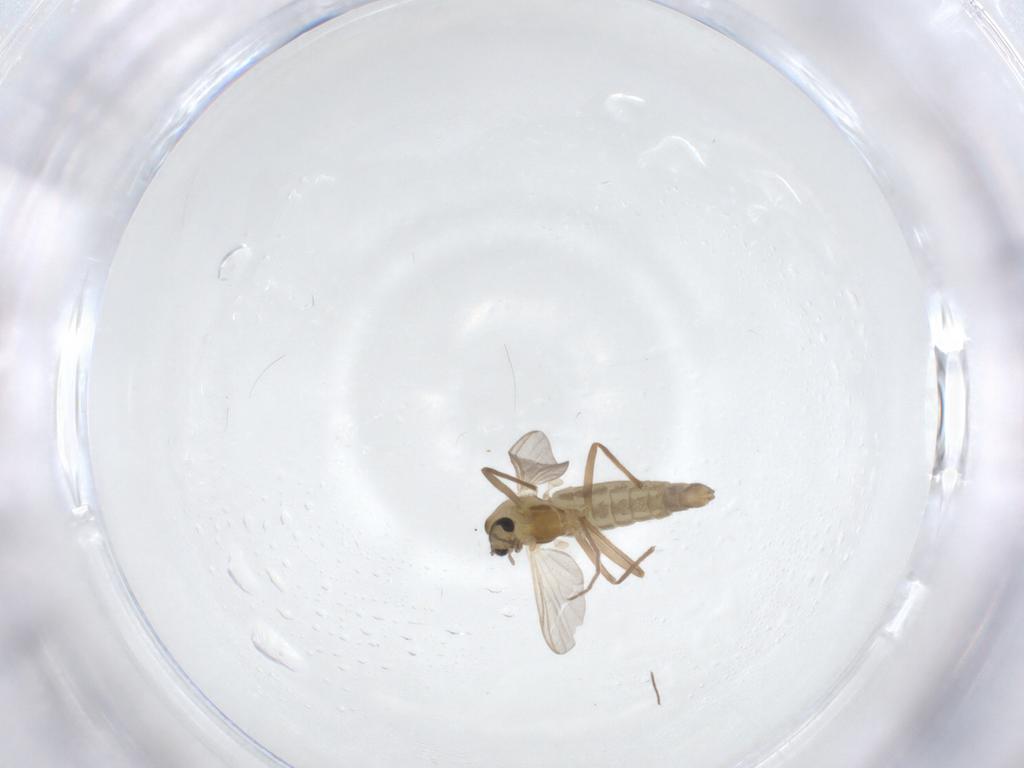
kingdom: Animalia
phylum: Arthropoda
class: Insecta
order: Diptera
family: Chironomidae
